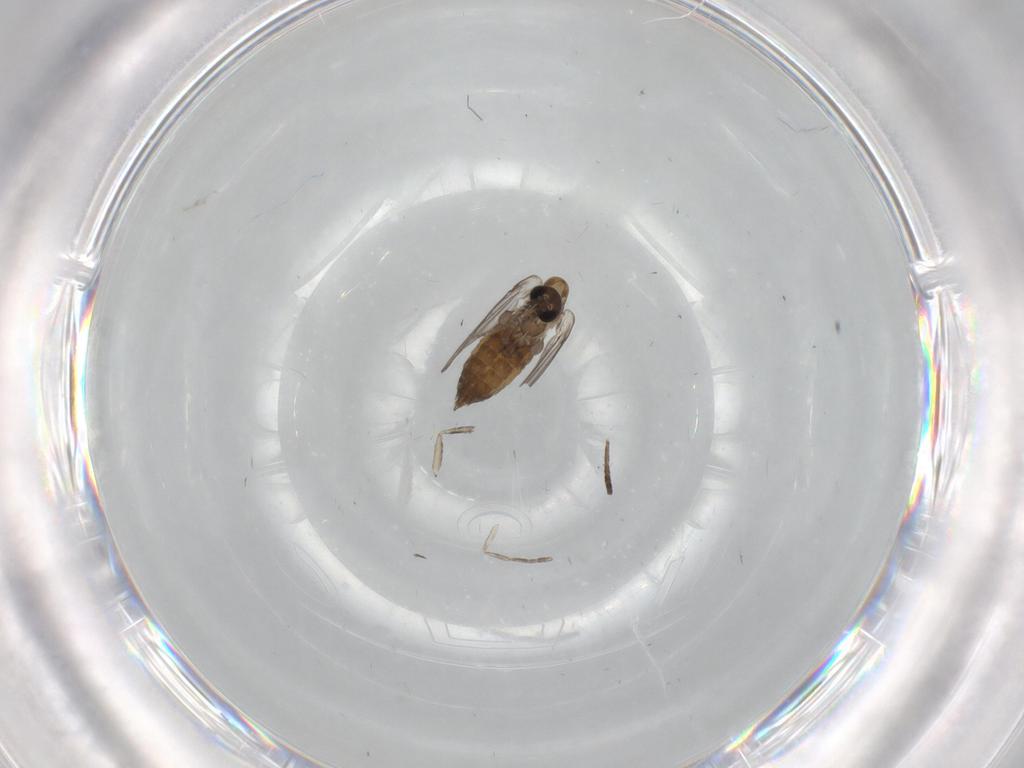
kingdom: Animalia
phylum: Arthropoda
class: Insecta
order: Diptera
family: Psychodidae
